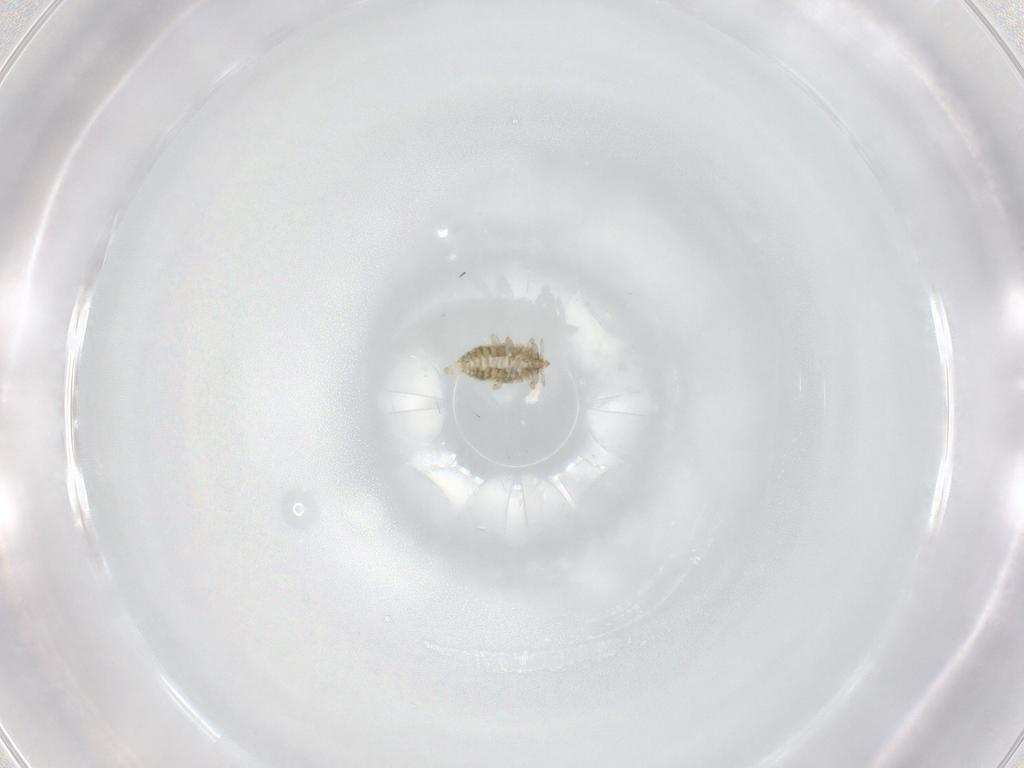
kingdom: Animalia
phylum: Arthropoda
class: Insecta
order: Neuroptera
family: Coniopterygidae
